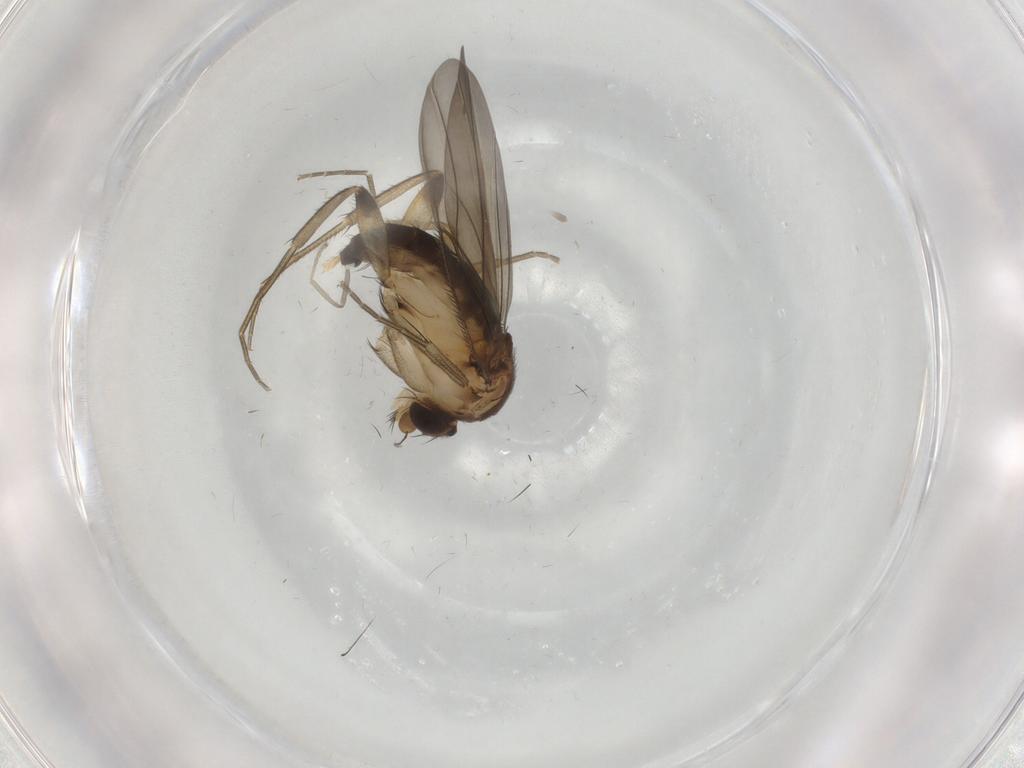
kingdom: Animalia
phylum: Arthropoda
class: Insecta
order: Diptera
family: Phoridae
